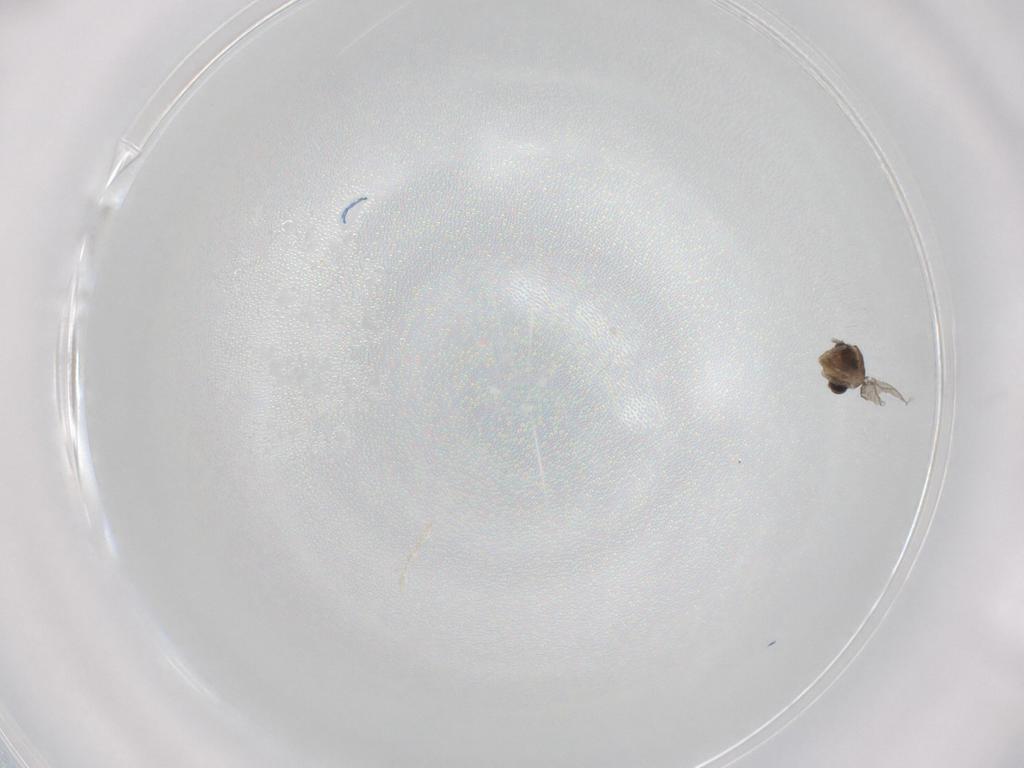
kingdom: Animalia
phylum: Arthropoda
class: Insecta
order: Diptera
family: Cecidomyiidae
